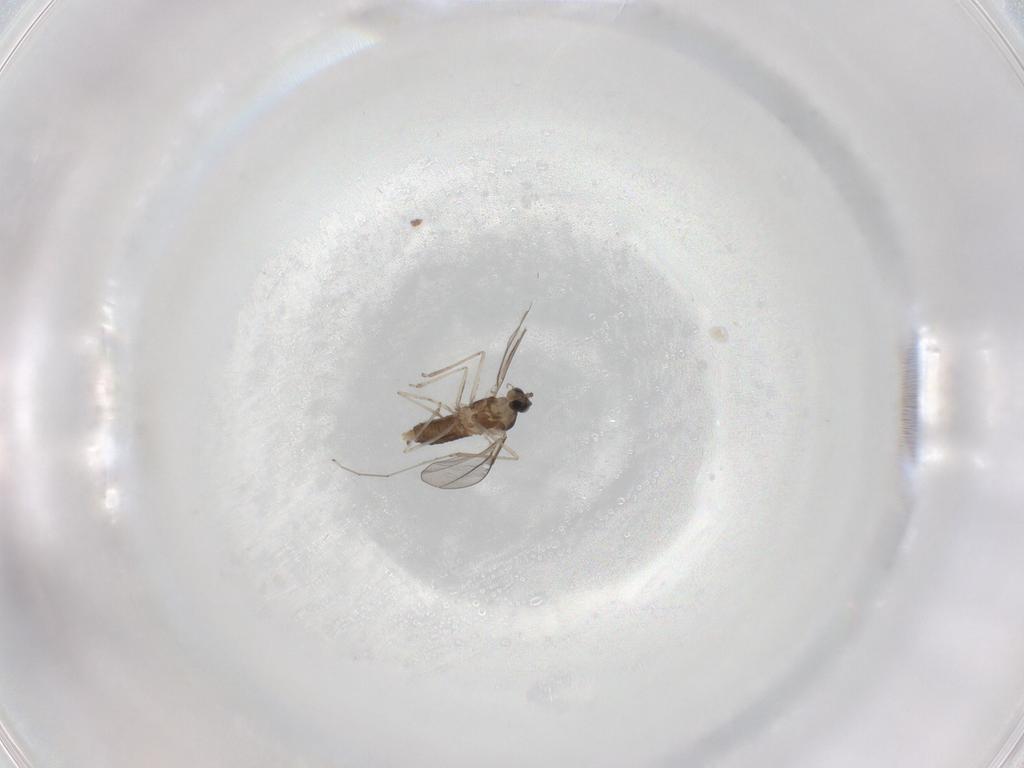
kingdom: Animalia
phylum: Arthropoda
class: Insecta
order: Diptera
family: Cecidomyiidae
